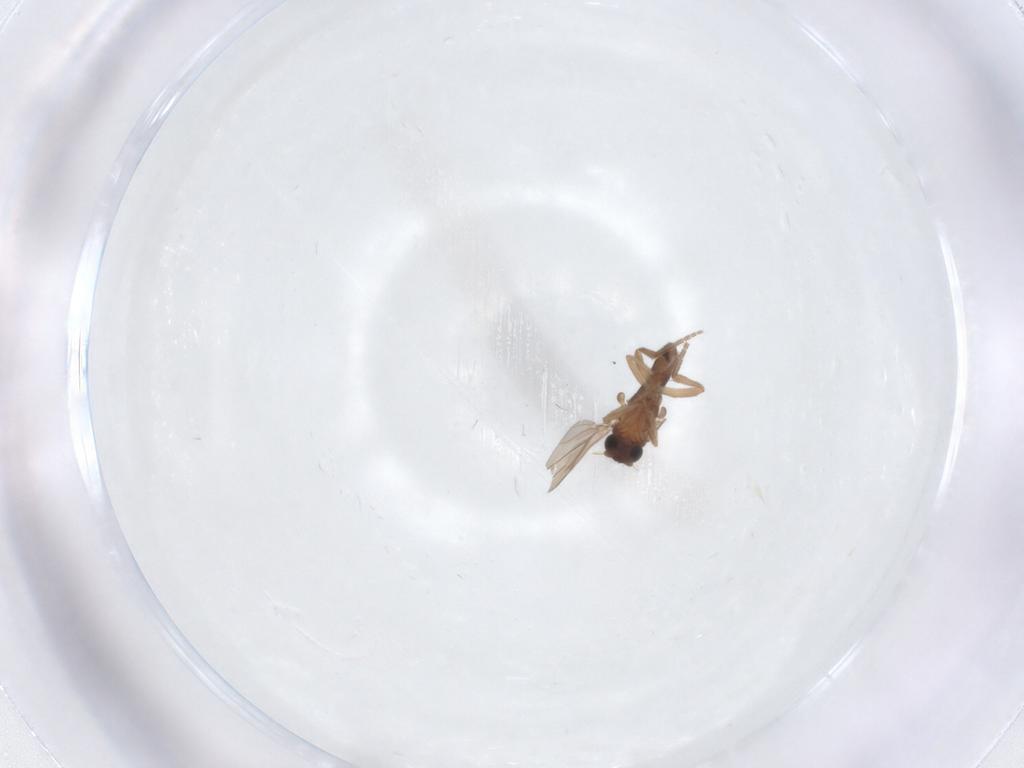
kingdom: Animalia
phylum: Arthropoda
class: Insecta
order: Diptera
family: Phoridae
